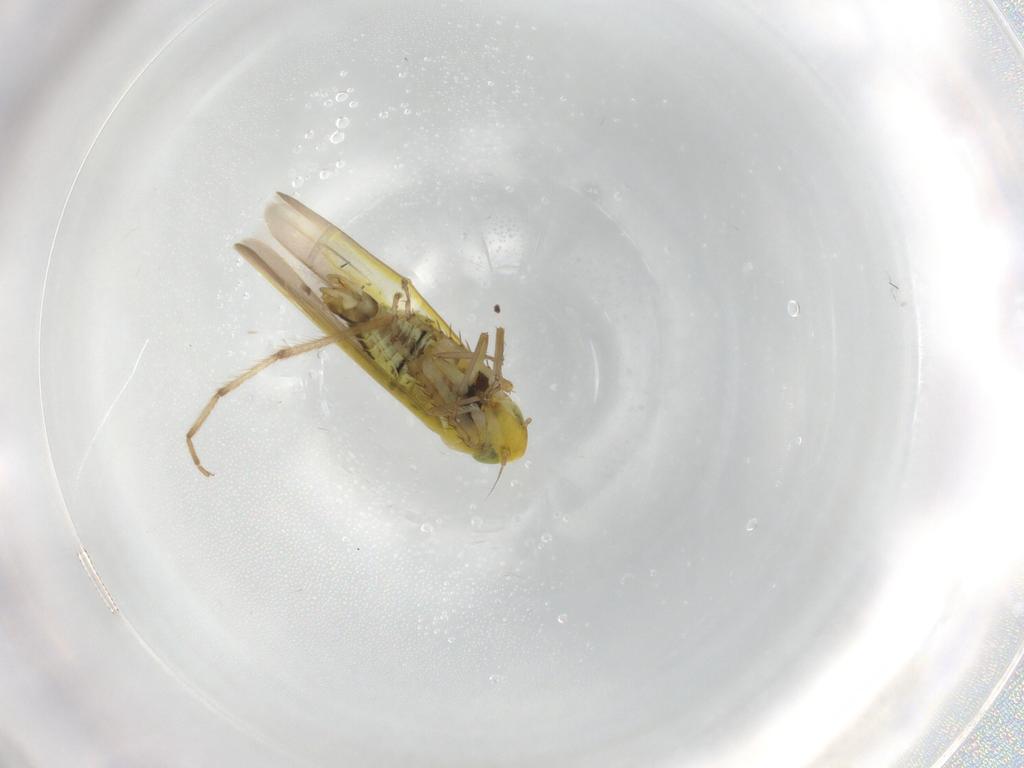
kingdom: Animalia
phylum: Arthropoda
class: Insecta
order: Hemiptera
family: Cicadellidae
